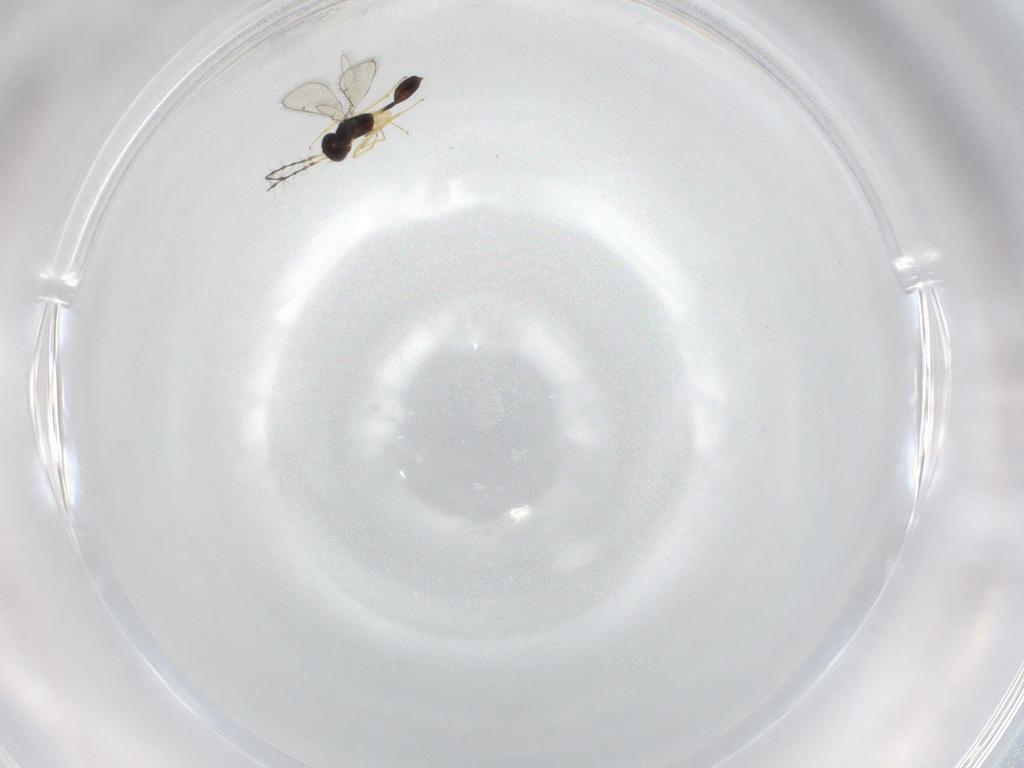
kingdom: Animalia
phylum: Arthropoda
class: Insecta
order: Hymenoptera
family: Diparidae
